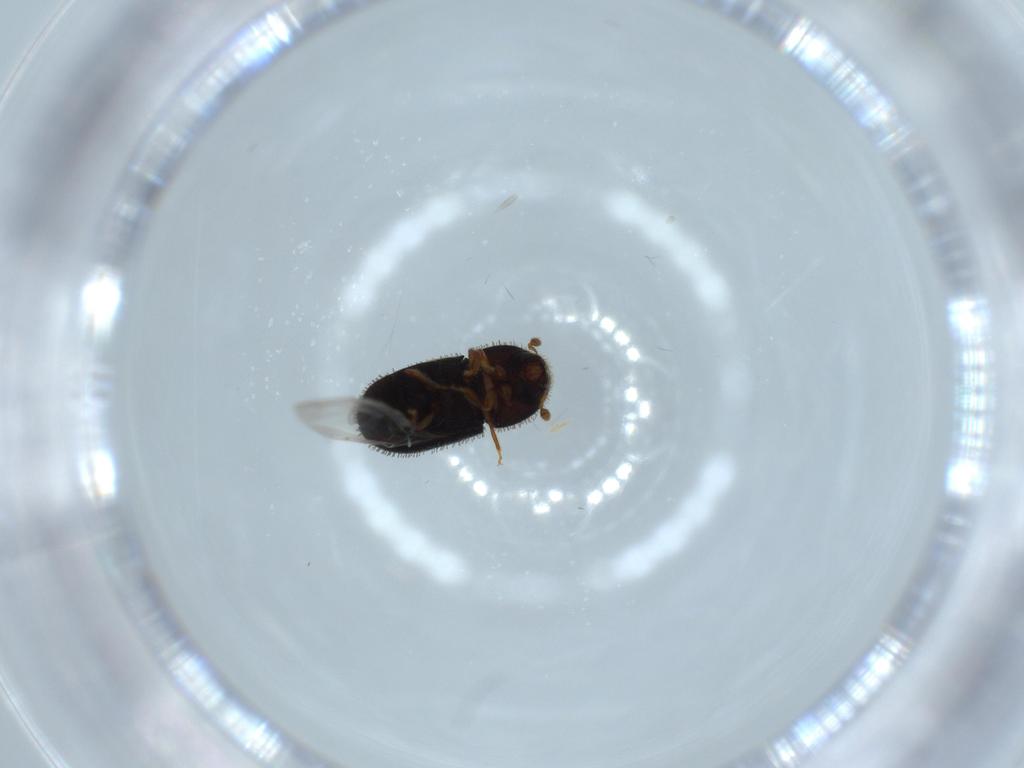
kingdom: Animalia
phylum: Arthropoda
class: Insecta
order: Coleoptera
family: Curculionidae
